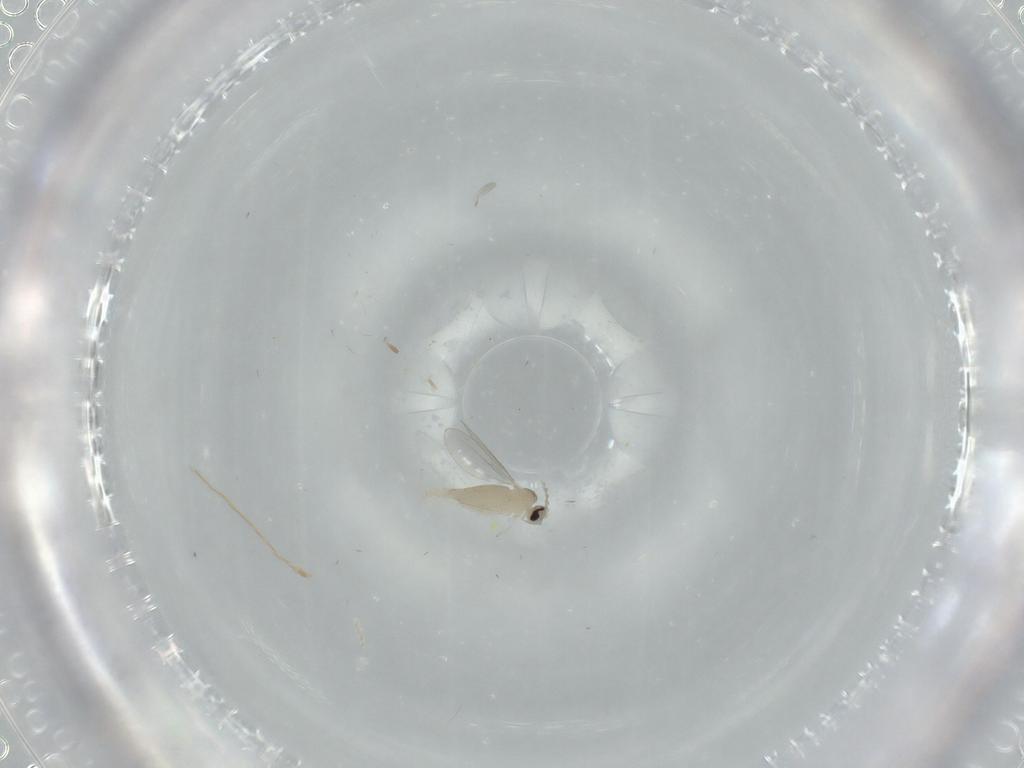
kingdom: Animalia
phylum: Arthropoda
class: Insecta
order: Diptera
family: Cecidomyiidae
